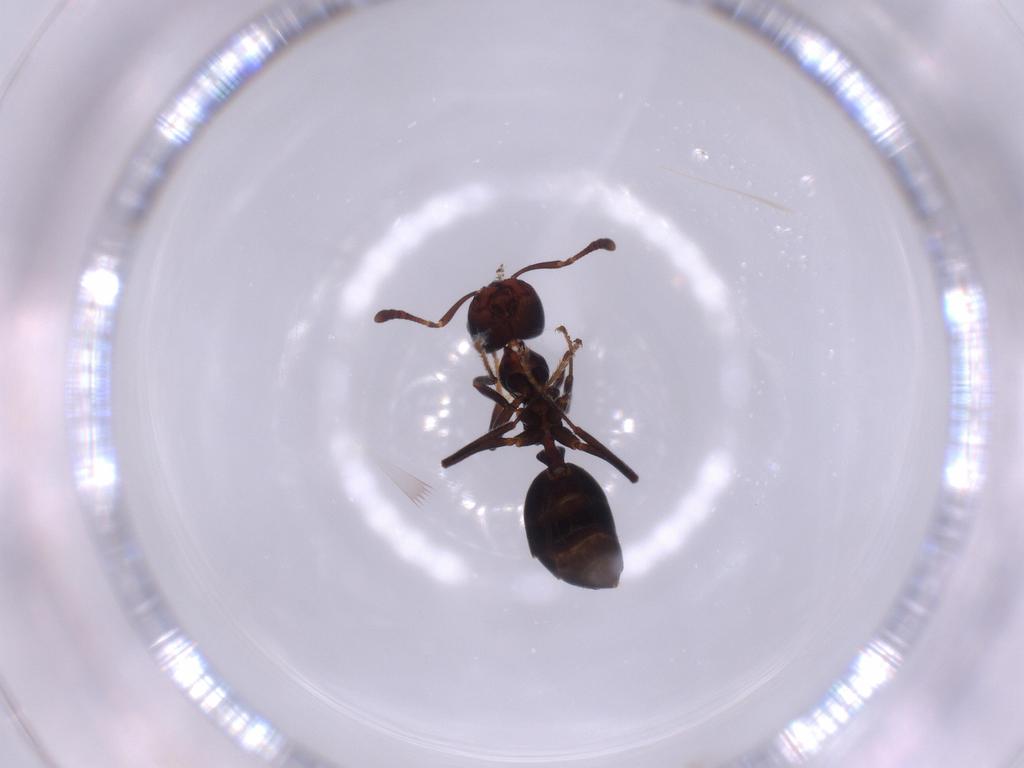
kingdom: Animalia
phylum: Arthropoda
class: Insecta
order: Hymenoptera
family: Formicidae
